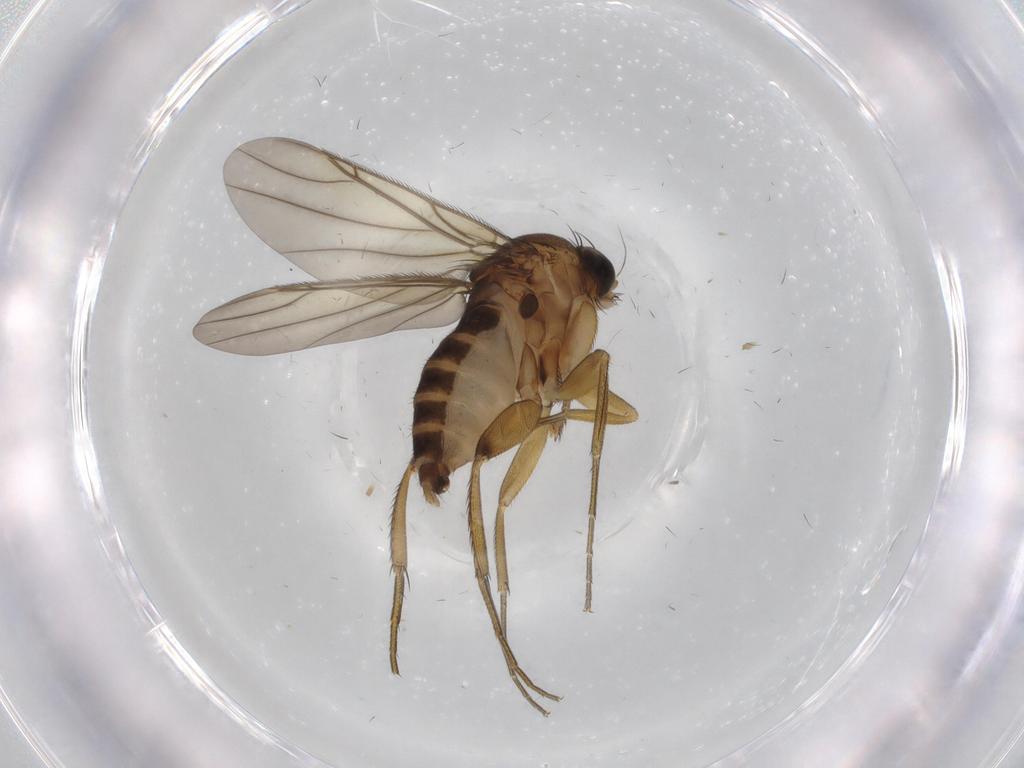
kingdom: Animalia
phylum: Arthropoda
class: Insecta
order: Diptera
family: Phoridae
